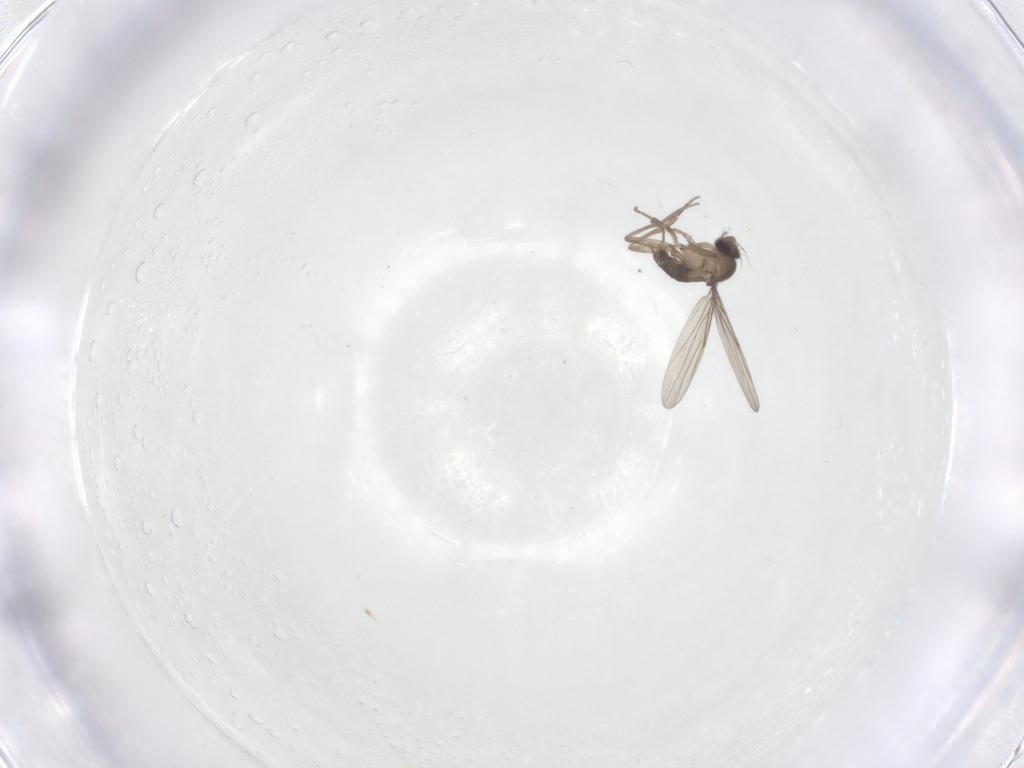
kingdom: Animalia
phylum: Arthropoda
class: Insecta
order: Diptera
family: Sciaridae
